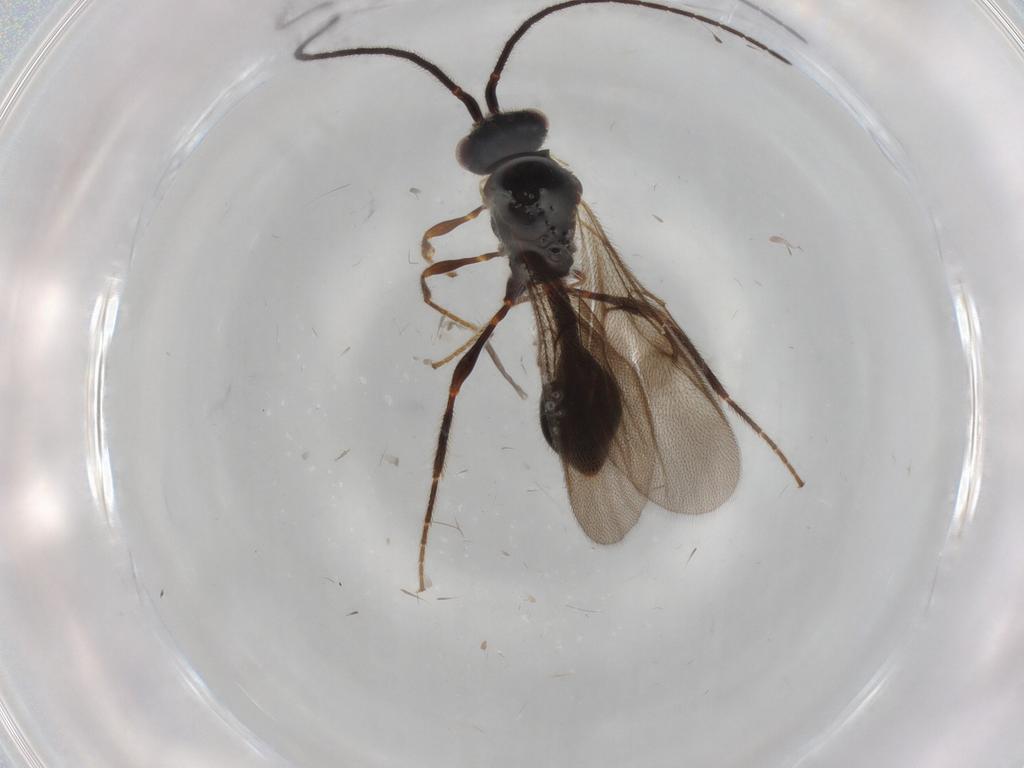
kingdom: Animalia
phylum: Arthropoda
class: Insecta
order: Hymenoptera
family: Diapriidae
